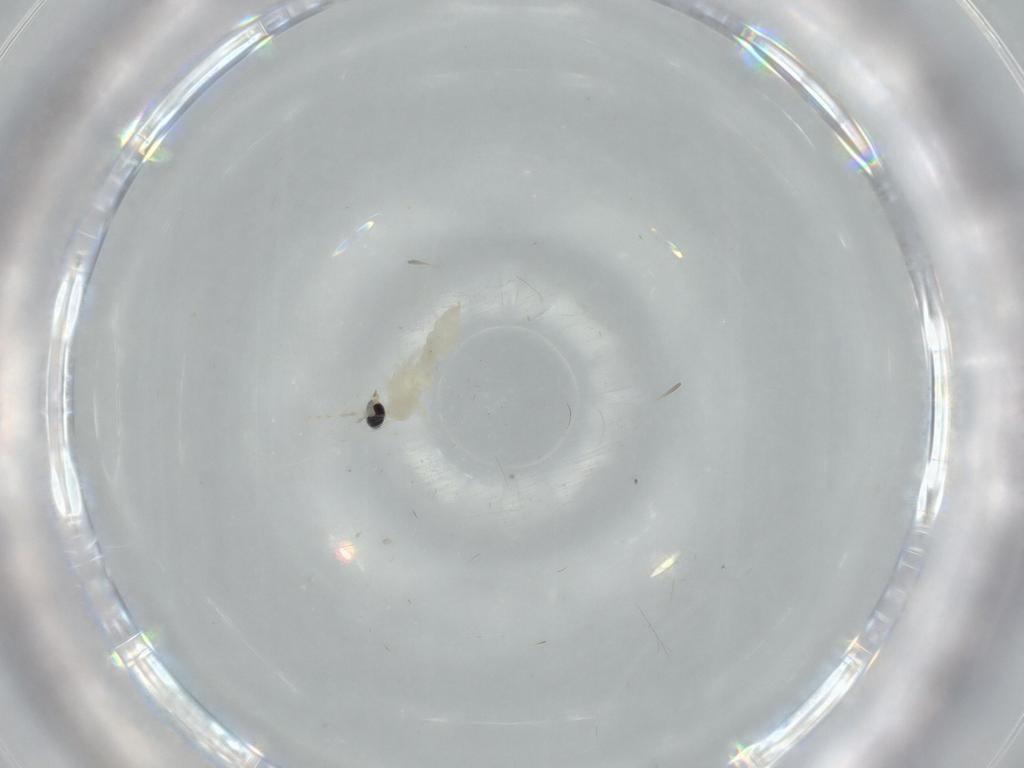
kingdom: Animalia
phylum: Arthropoda
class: Insecta
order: Diptera
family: Cecidomyiidae
